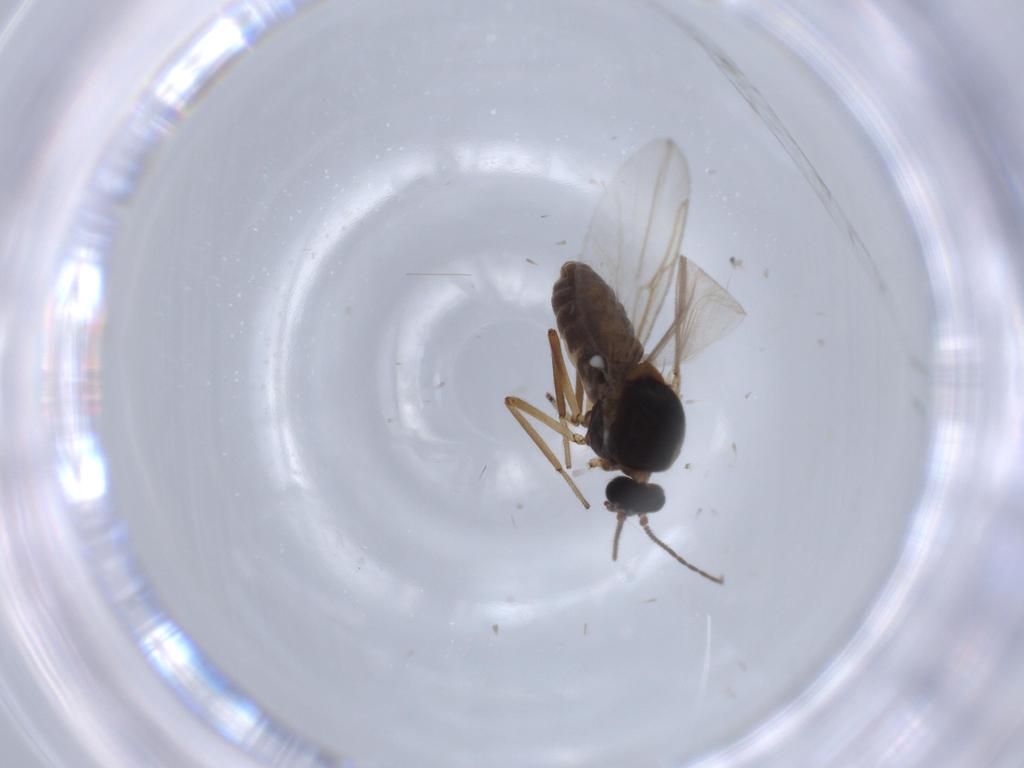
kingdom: Animalia
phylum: Arthropoda
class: Insecta
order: Diptera
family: Ceratopogonidae
